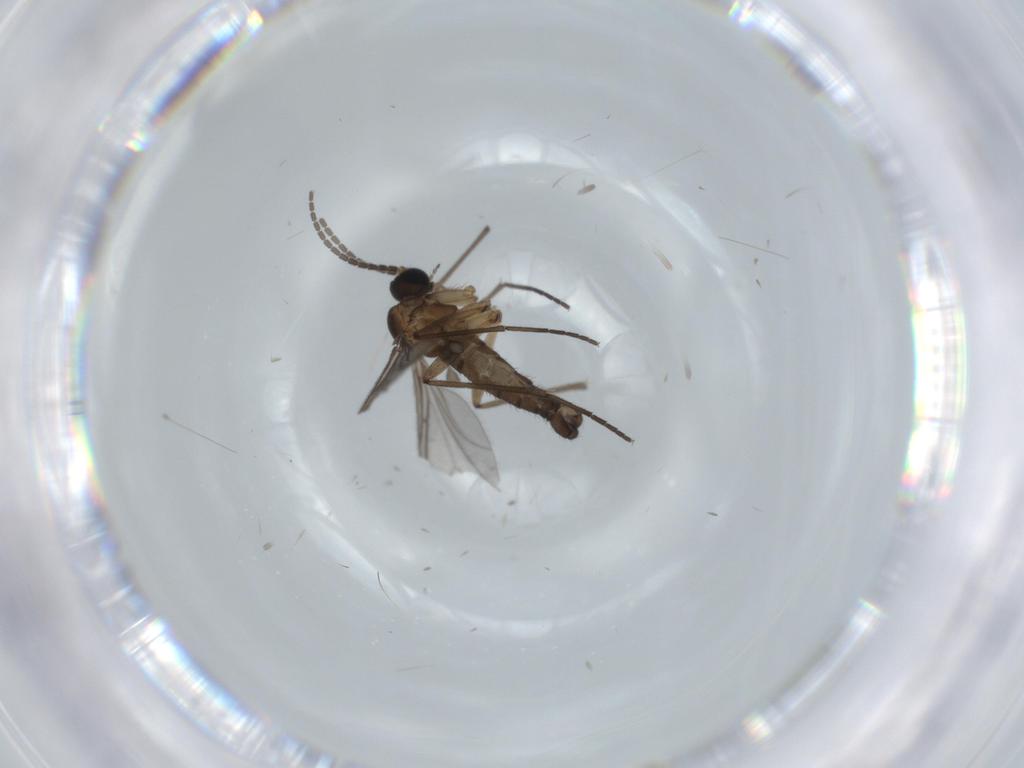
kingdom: Animalia
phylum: Arthropoda
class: Insecta
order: Diptera
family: Sciaridae
